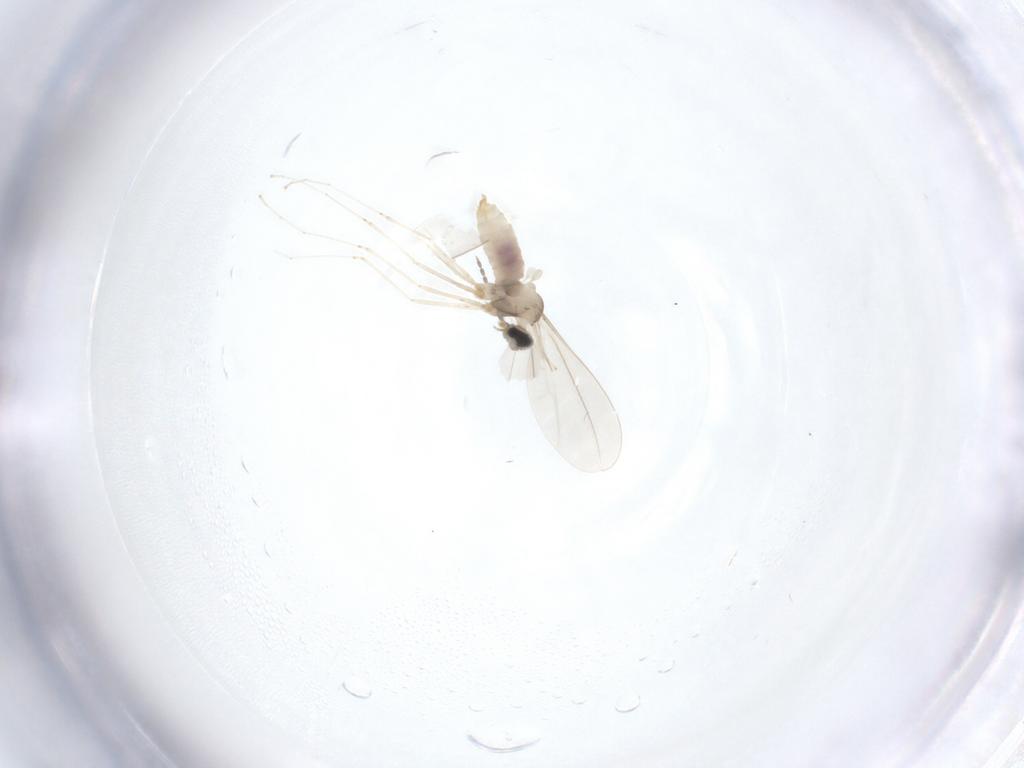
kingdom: Animalia
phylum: Arthropoda
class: Insecta
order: Diptera
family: Cecidomyiidae
